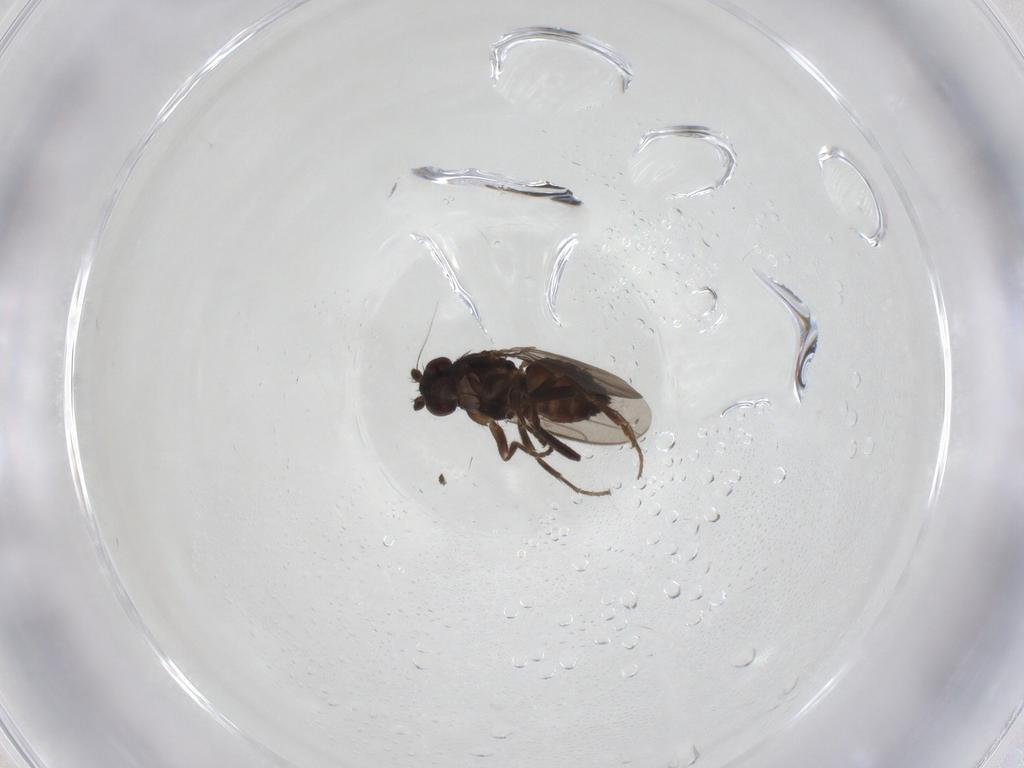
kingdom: Animalia
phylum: Arthropoda
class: Insecta
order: Diptera
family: Sphaeroceridae
